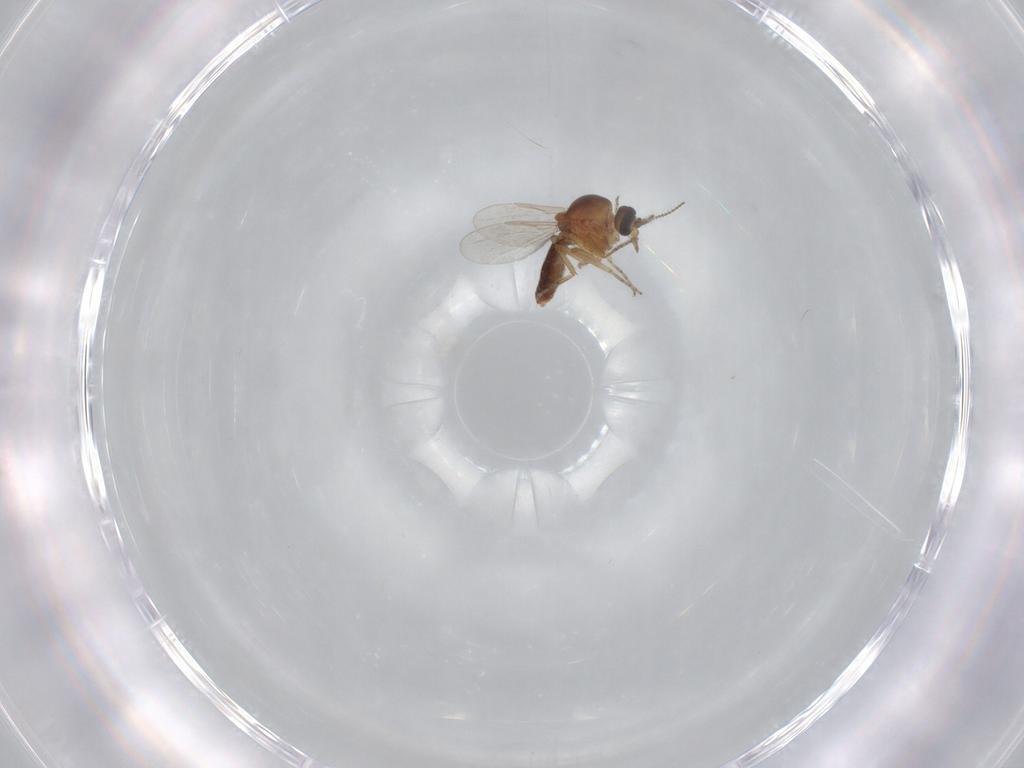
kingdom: Animalia
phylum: Arthropoda
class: Insecta
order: Diptera
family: Ceratopogonidae
